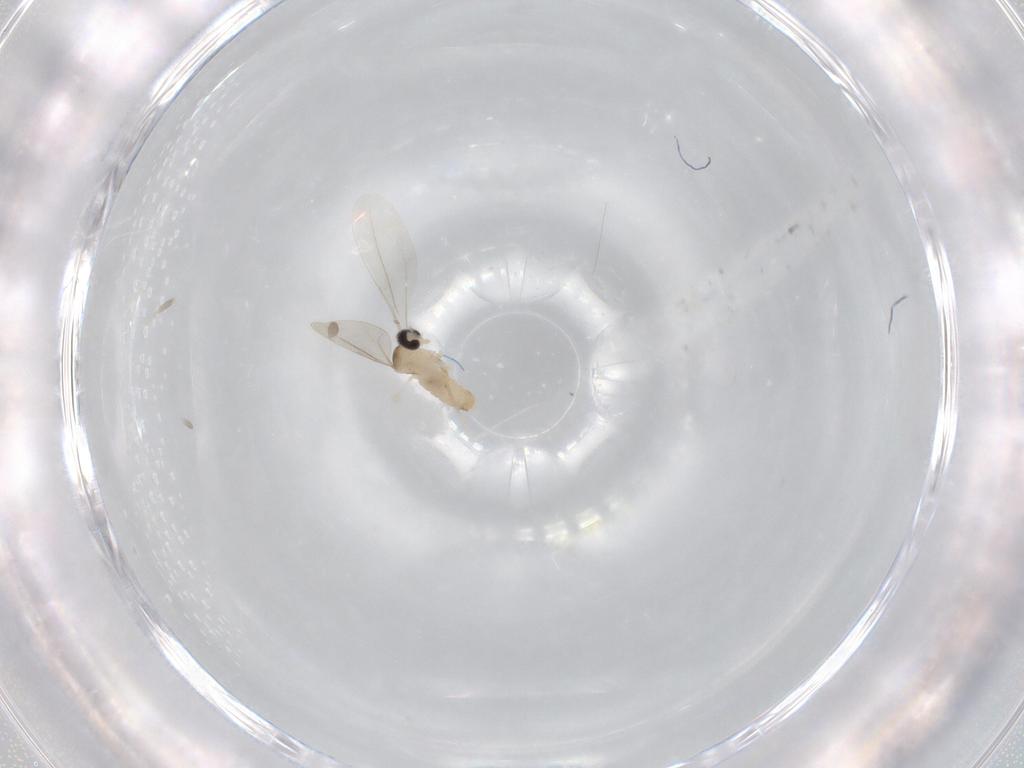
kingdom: Animalia
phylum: Arthropoda
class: Insecta
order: Diptera
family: Cecidomyiidae
